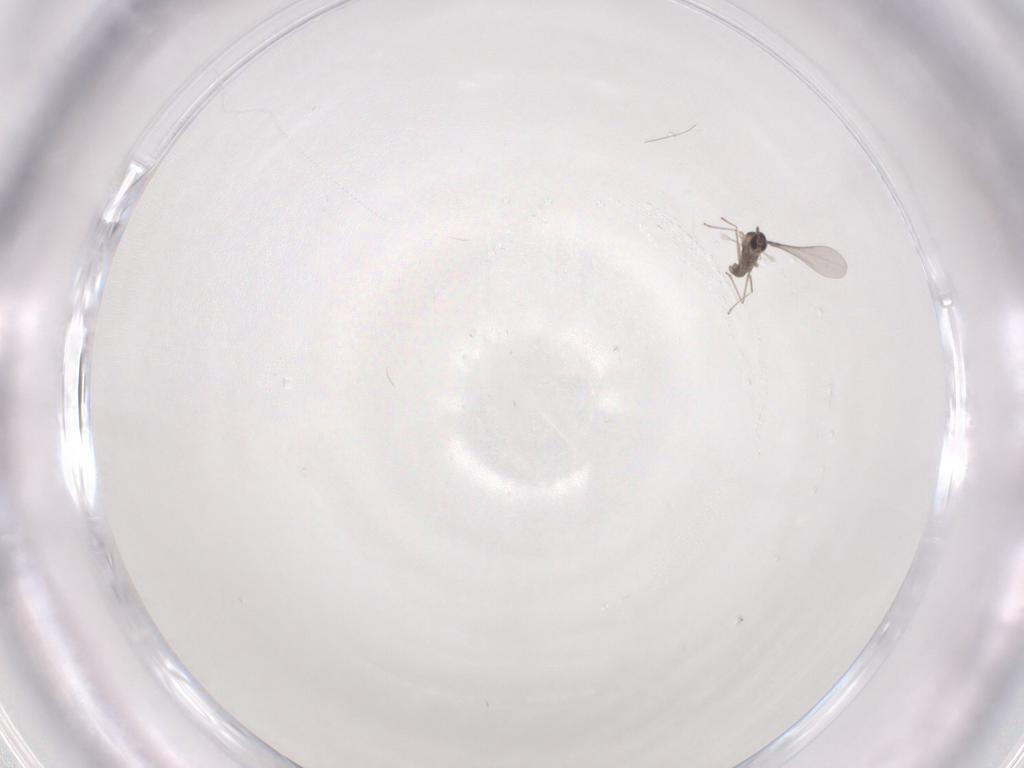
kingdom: Animalia
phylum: Arthropoda
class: Insecta
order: Diptera
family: Cecidomyiidae
